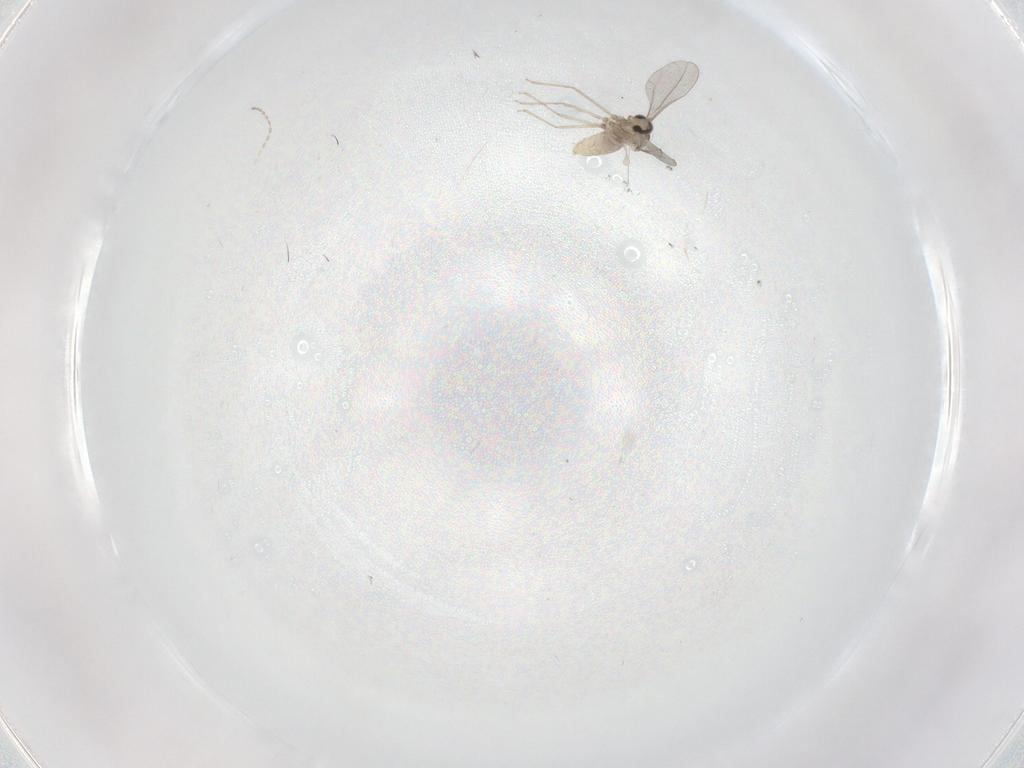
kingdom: Animalia
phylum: Arthropoda
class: Insecta
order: Diptera
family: Cecidomyiidae
